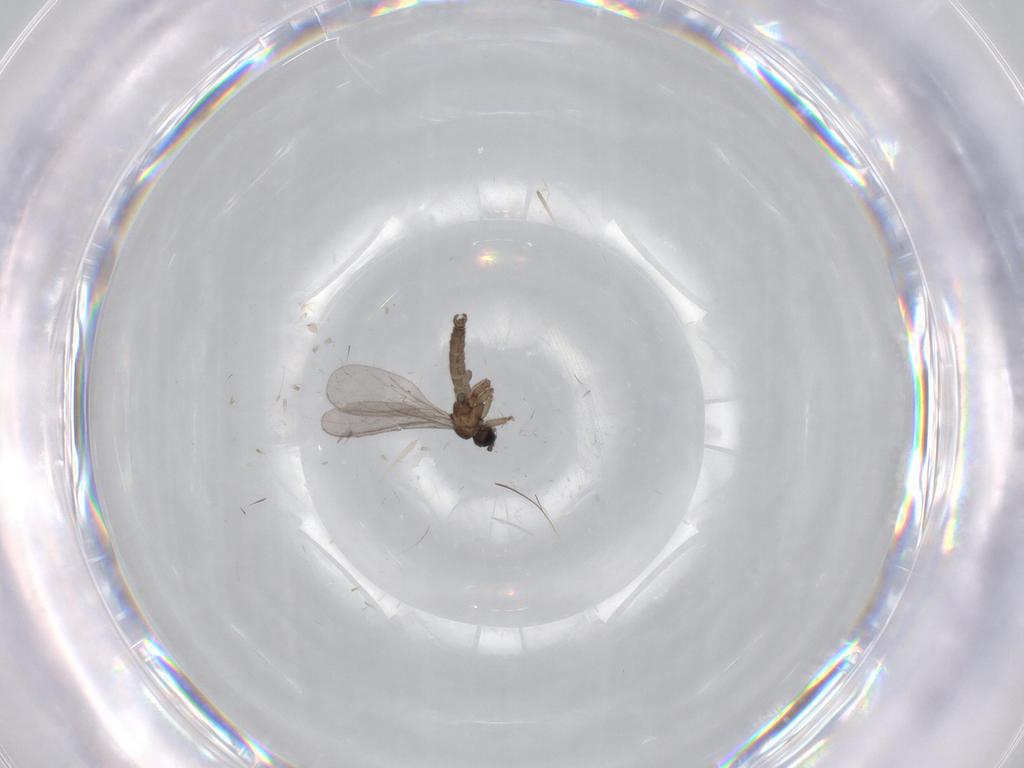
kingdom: Animalia
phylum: Arthropoda
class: Insecta
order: Diptera
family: Sciaridae
